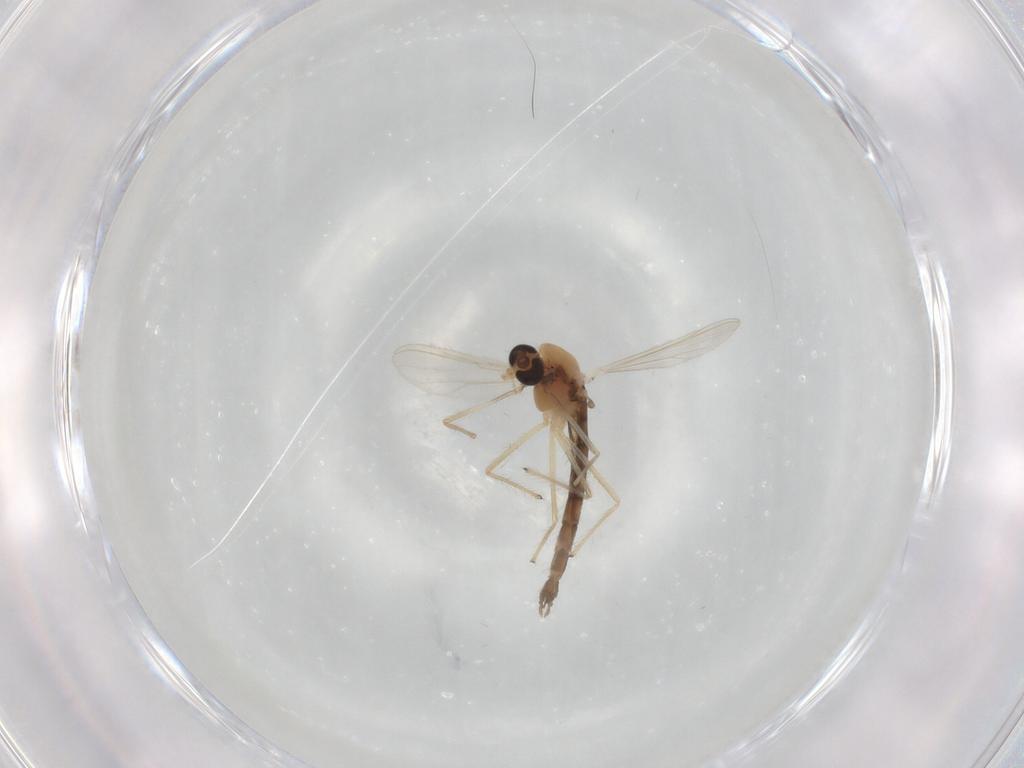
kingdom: Animalia
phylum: Arthropoda
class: Insecta
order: Diptera
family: Chironomidae
